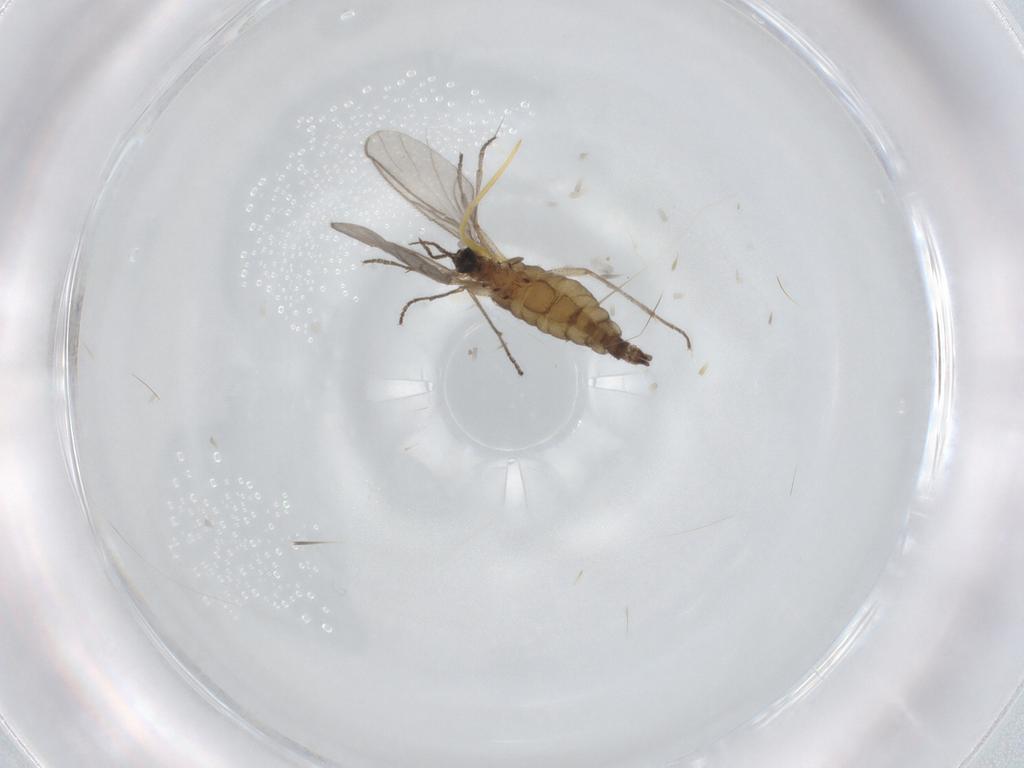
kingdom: Animalia
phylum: Arthropoda
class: Insecta
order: Diptera
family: Sciaridae
